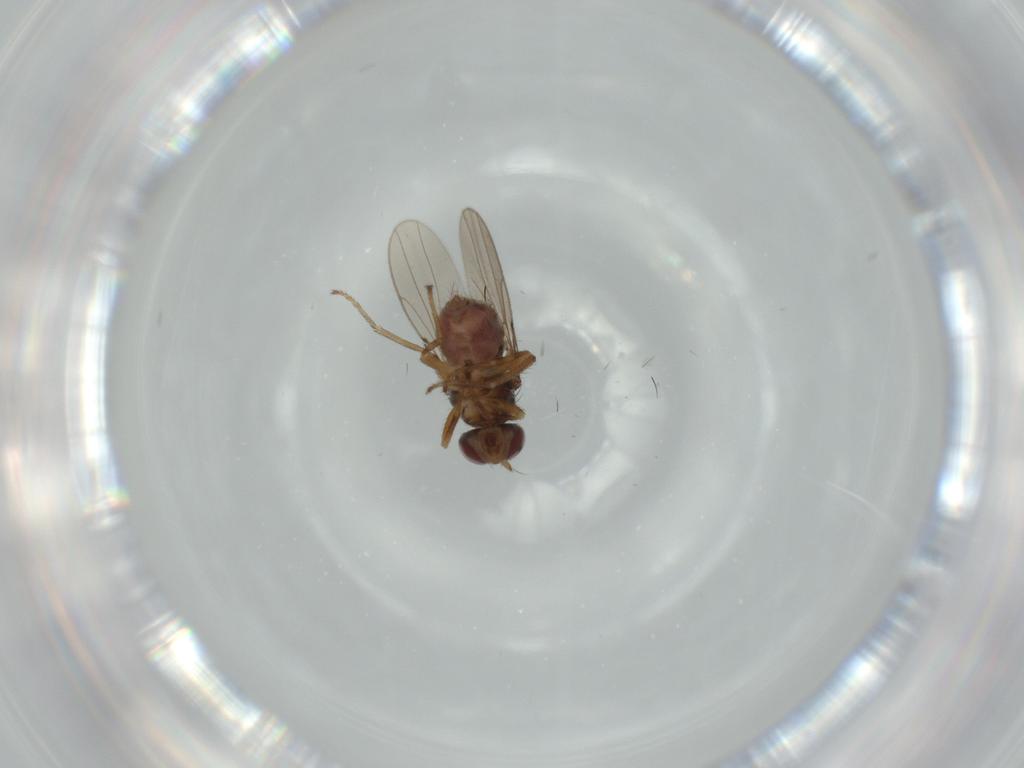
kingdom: Animalia
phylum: Arthropoda
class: Insecta
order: Diptera
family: Ephydridae
